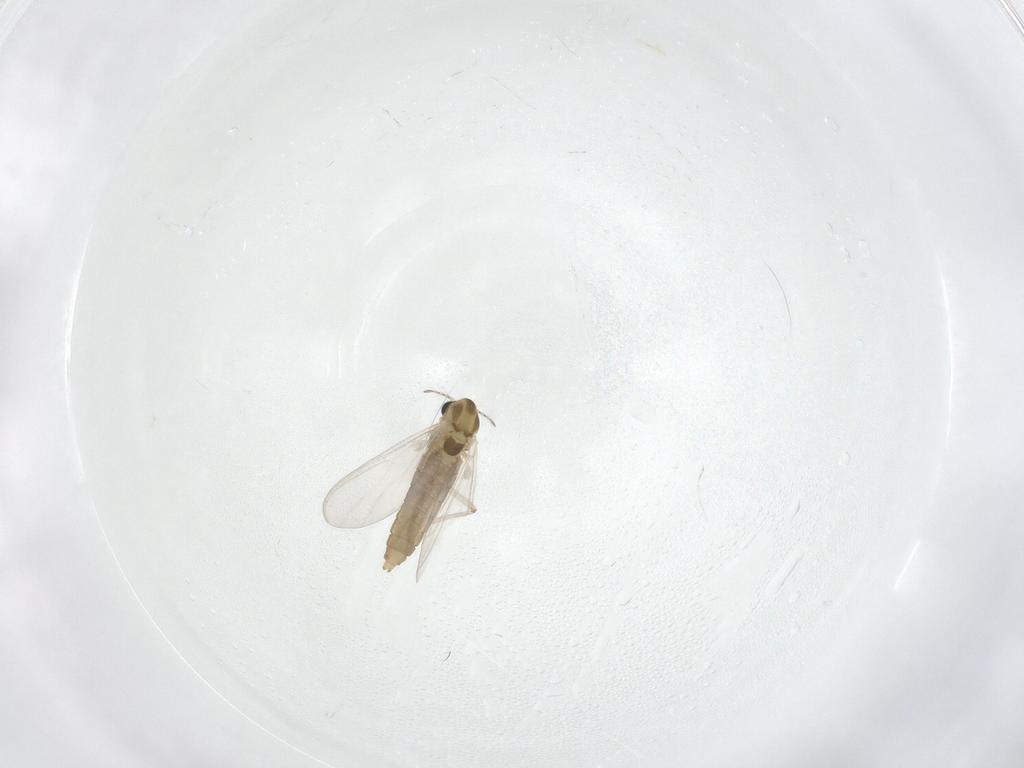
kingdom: Animalia
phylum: Arthropoda
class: Insecta
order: Diptera
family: Chironomidae
